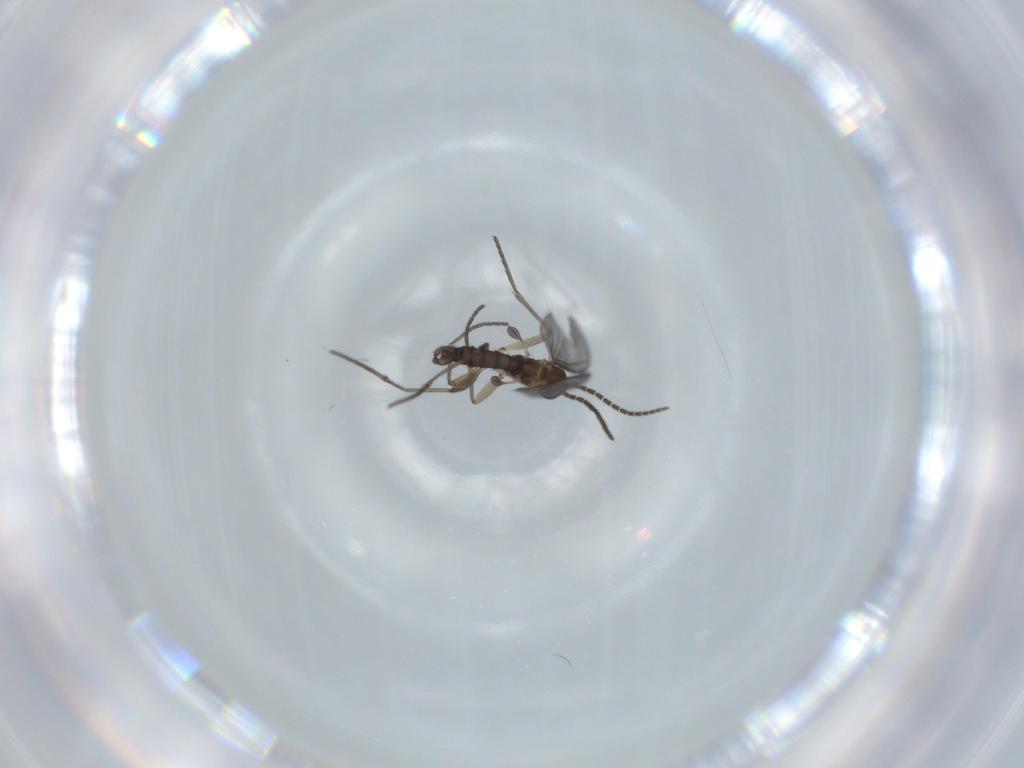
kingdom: Animalia
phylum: Arthropoda
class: Insecta
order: Diptera
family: Sciaridae
